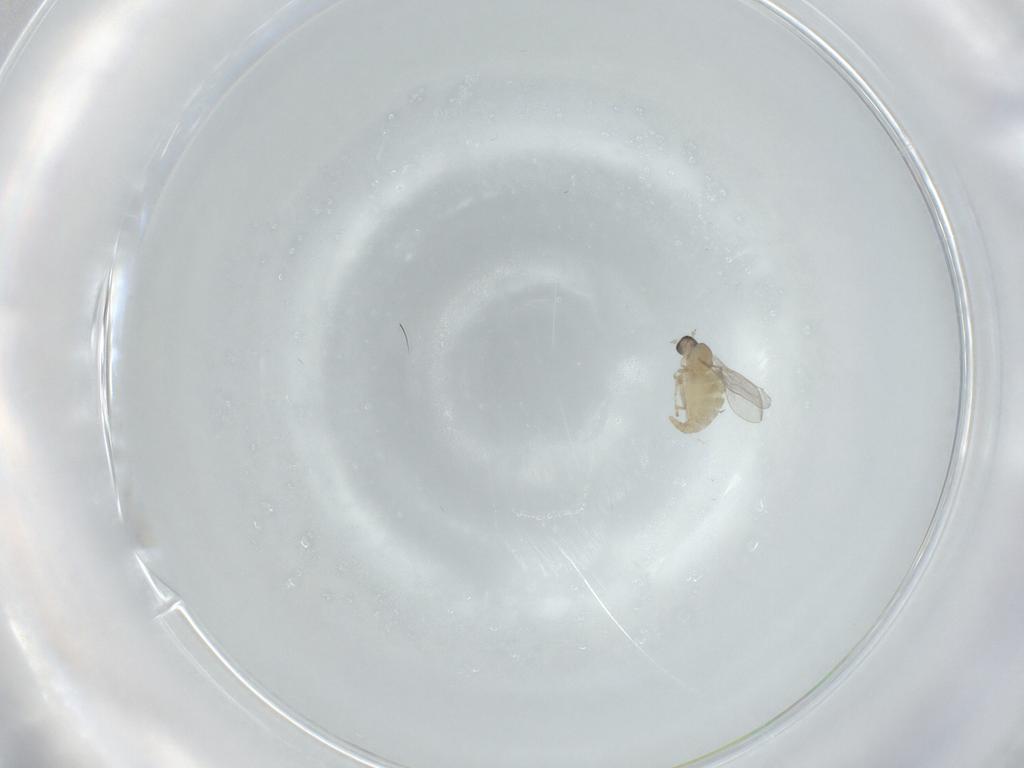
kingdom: Animalia
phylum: Arthropoda
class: Insecta
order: Diptera
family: Cecidomyiidae
